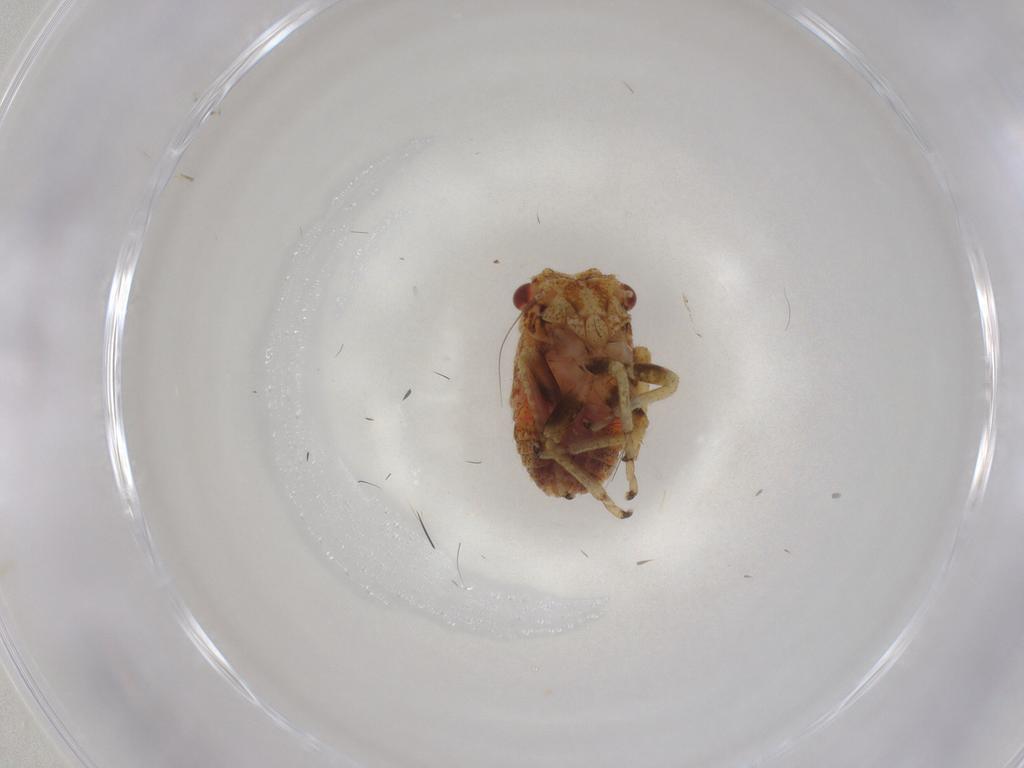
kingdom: Animalia
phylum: Arthropoda
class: Insecta
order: Hemiptera
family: Cicadellidae
